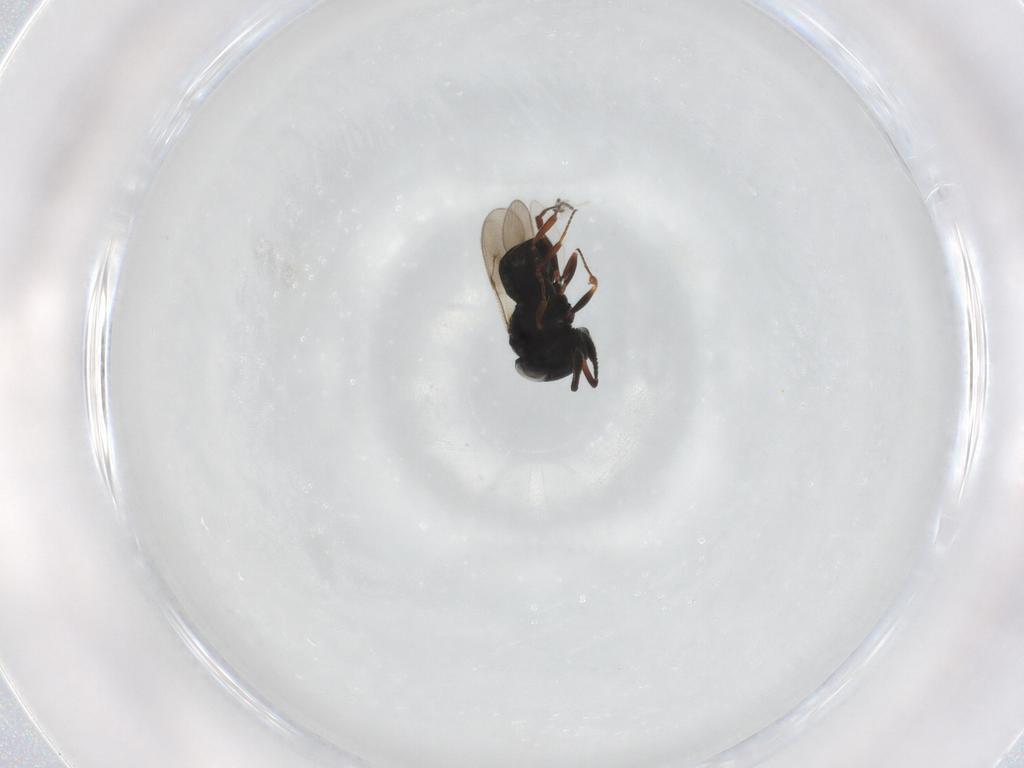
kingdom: Animalia
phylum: Arthropoda
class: Insecta
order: Hymenoptera
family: Scelionidae
